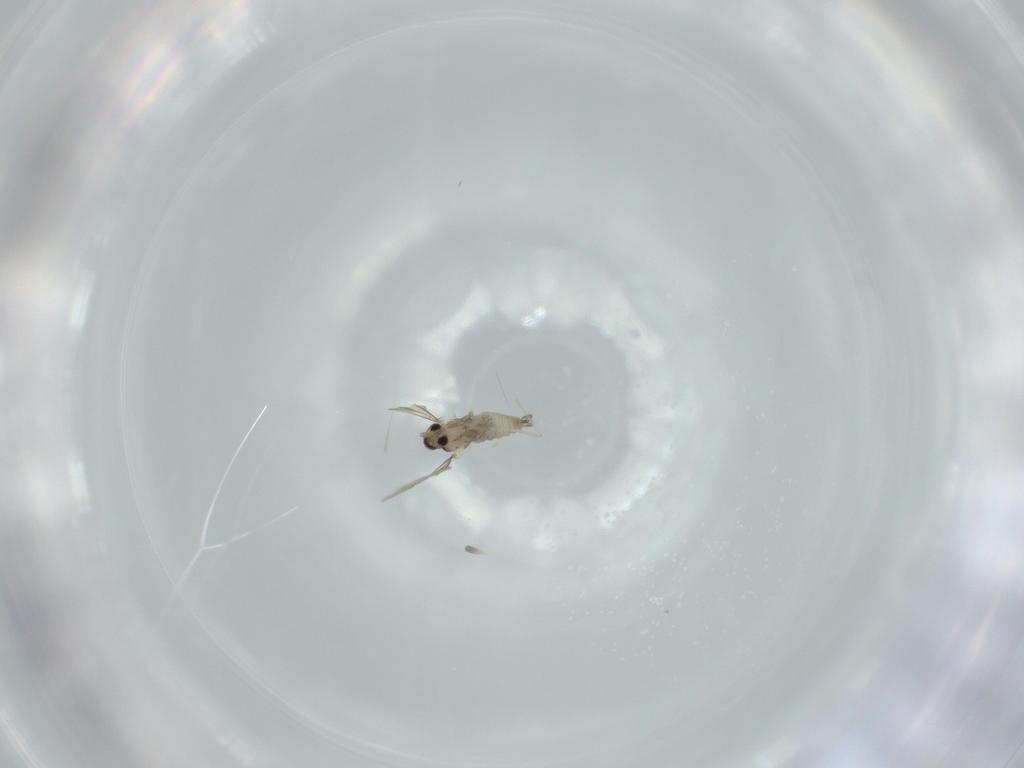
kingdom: Animalia
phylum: Arthropoda
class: Insecta
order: Diptera
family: Cecidomyiidae
